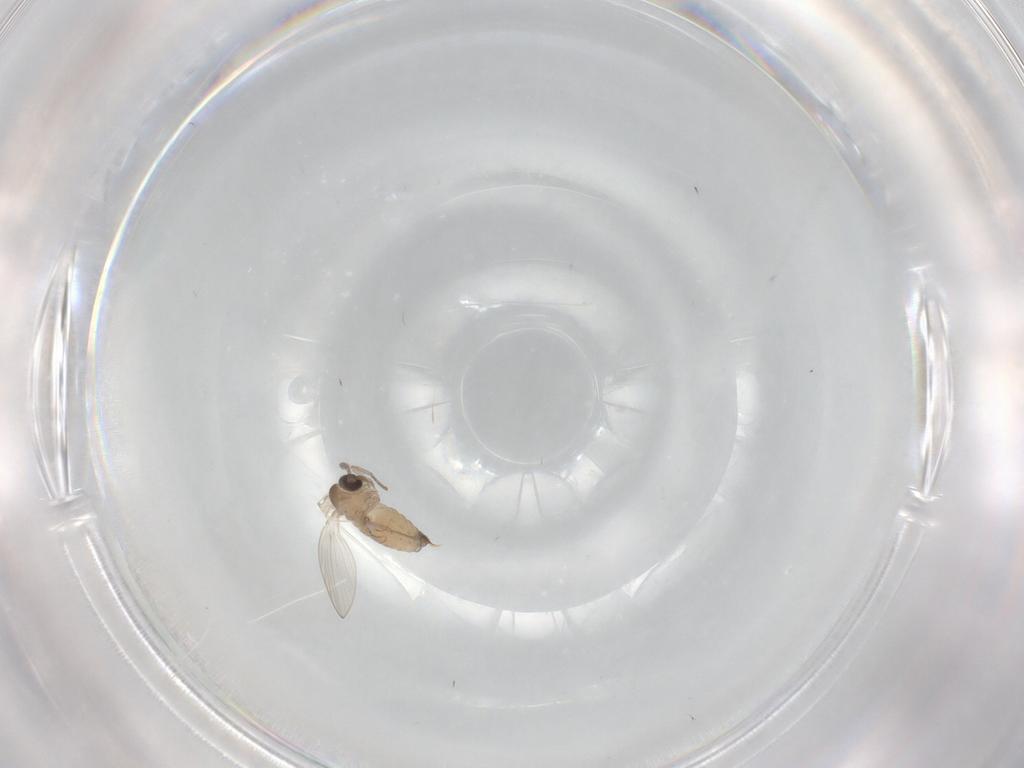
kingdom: Animalia
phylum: Arthropoda
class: Insecta
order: Diptera
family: Psychodidae
